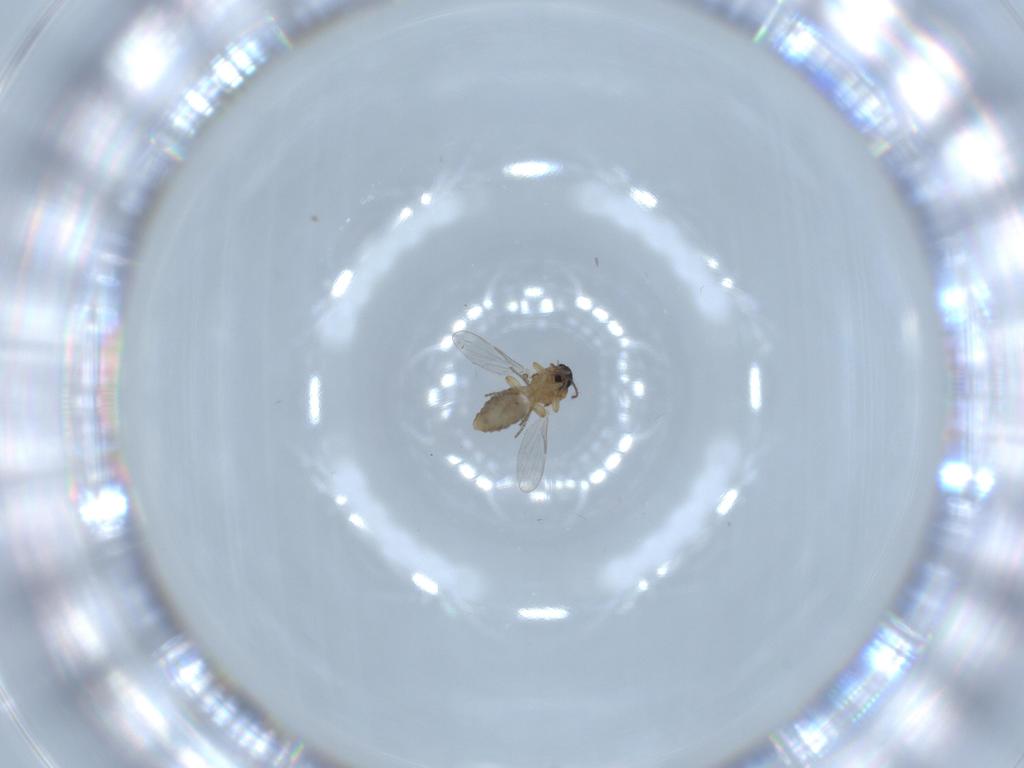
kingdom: Animalia
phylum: Arthropoda
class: Insecta
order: Diptera
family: Ceratopogonidae
